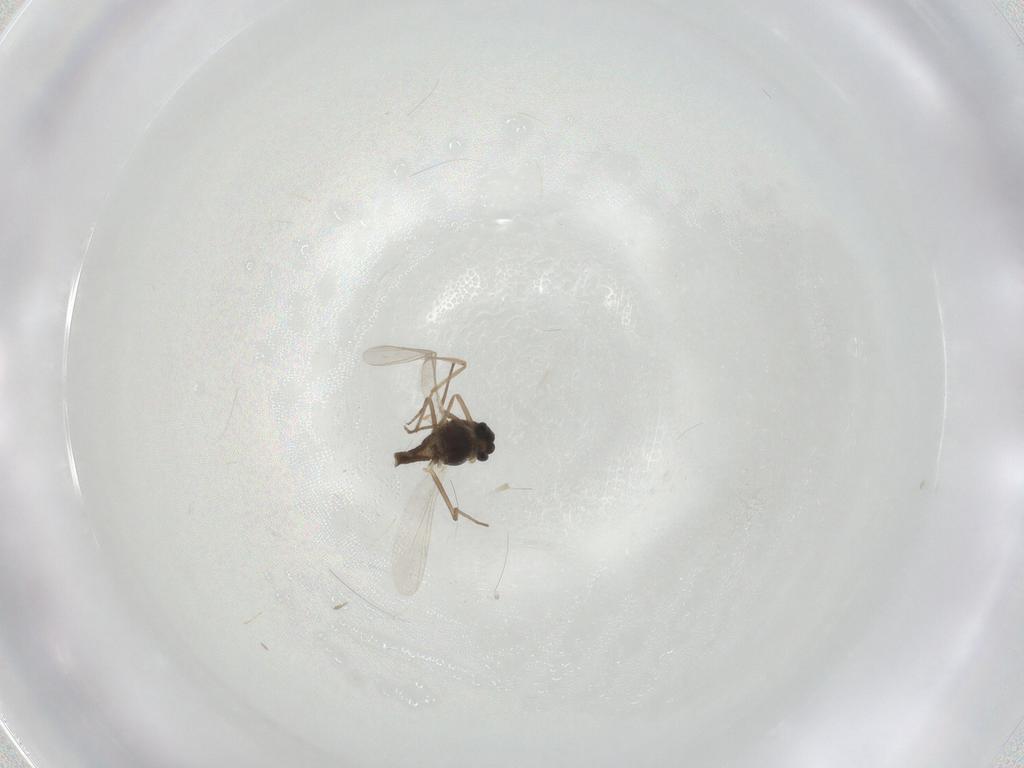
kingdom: Animalia
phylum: Arthropoda
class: Insecta
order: Diptera
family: Chironomidae
